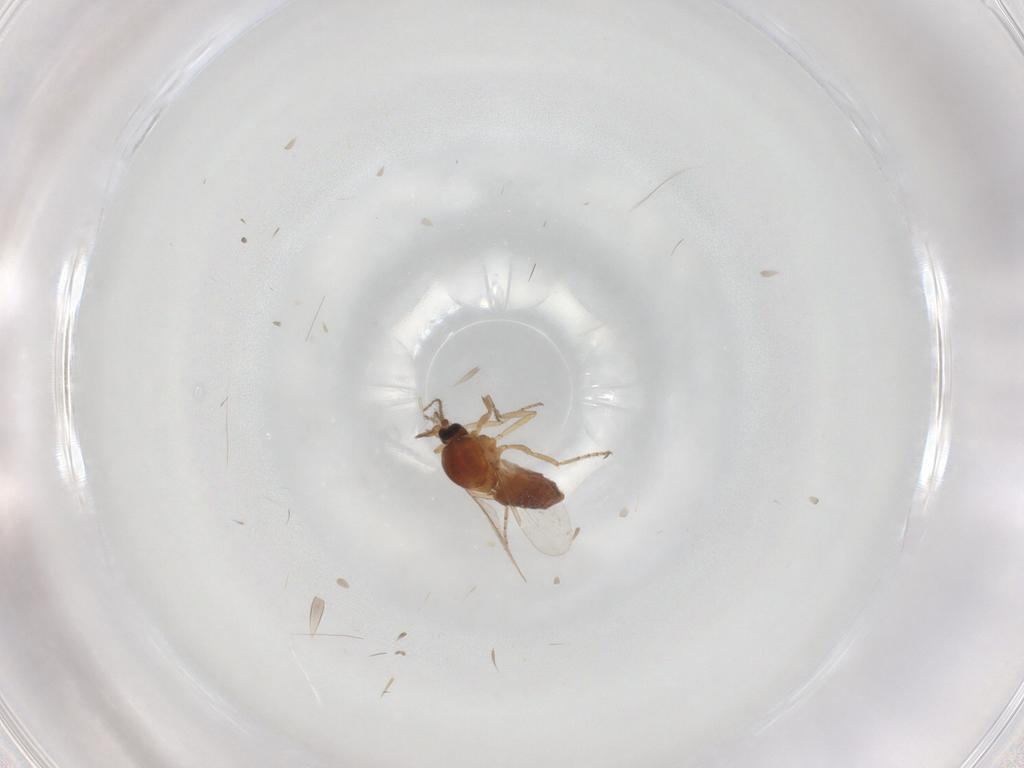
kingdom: Animalia
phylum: Arthropoda
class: Insecta
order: Diptera
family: Ceratopogonidae
